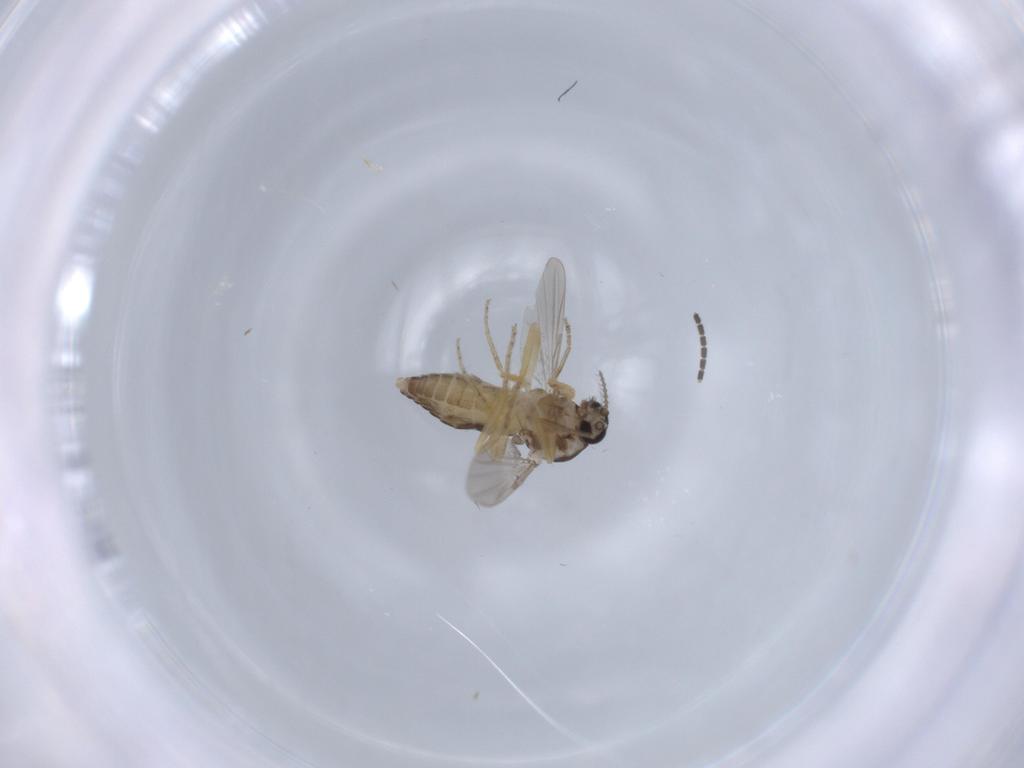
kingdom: Animalia
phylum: Arthropoda
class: Insecta
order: Diptera
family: Ceratopogonidae
